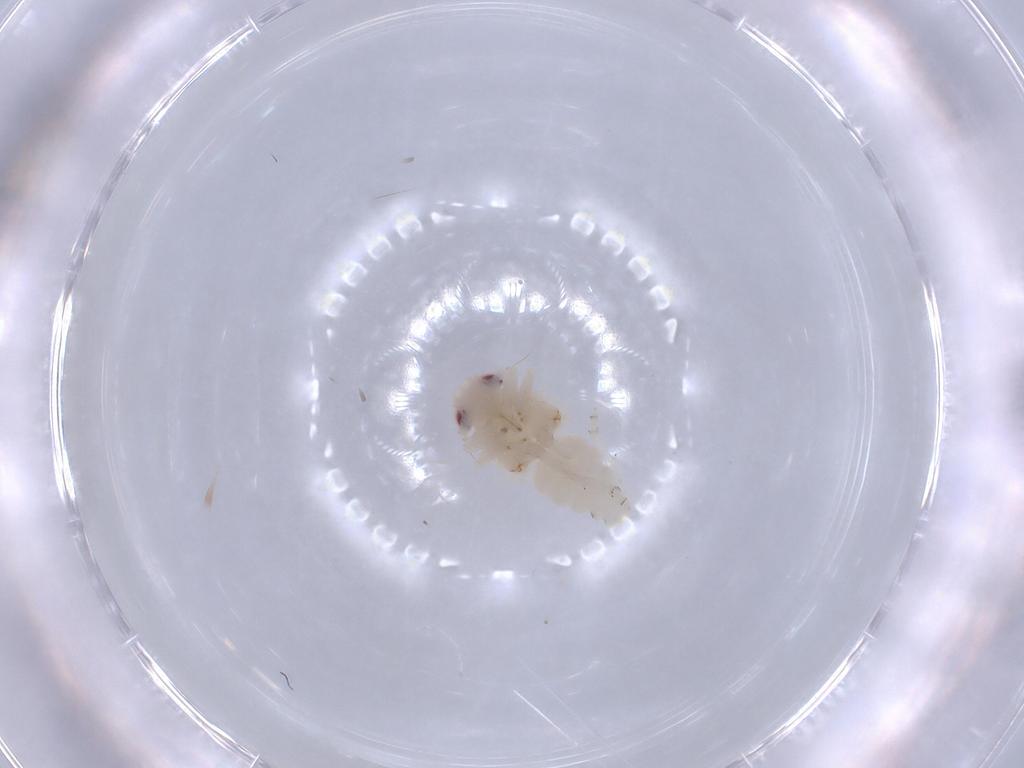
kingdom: Animalia
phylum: Arthropoda
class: Insecta
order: Hemiptera
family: Nogodinidae
